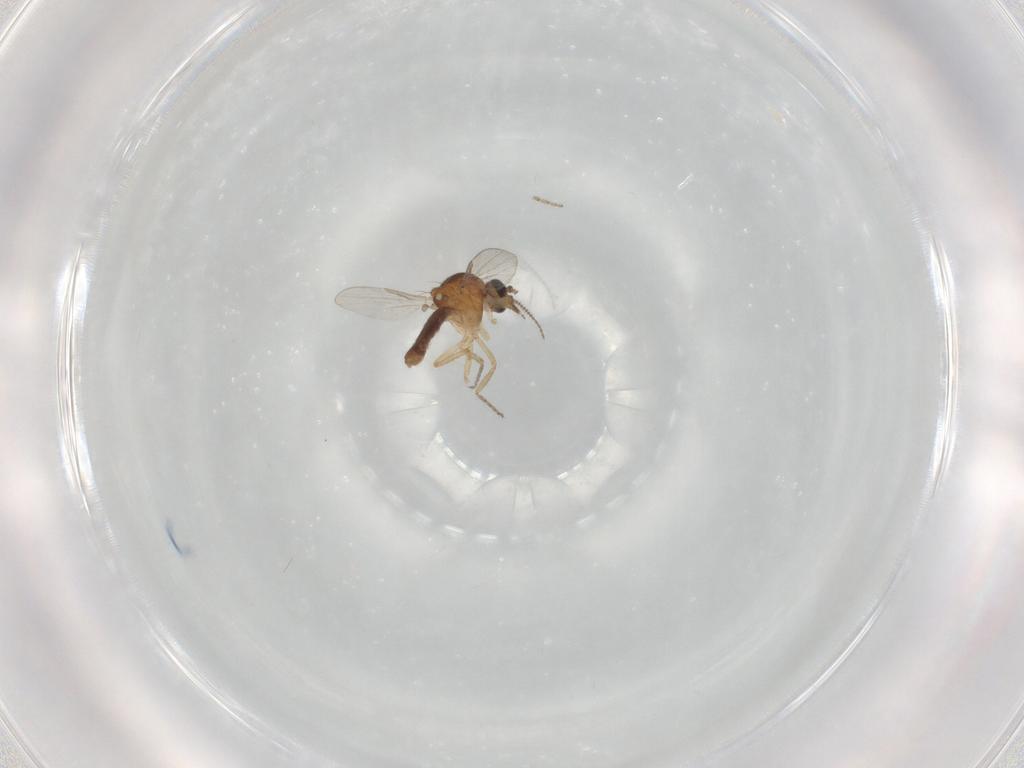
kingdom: Animalia
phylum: Arthropoda
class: Insecta
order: Diptera
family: Ceratopogonidae
